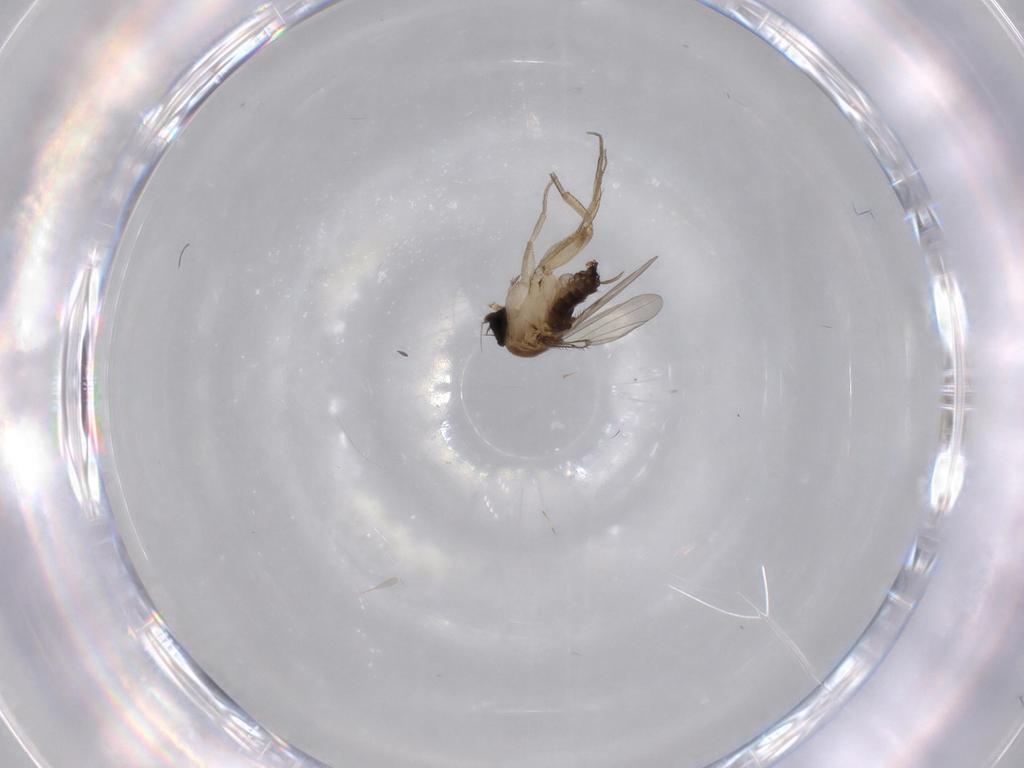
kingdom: Animalia
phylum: Arthropoda
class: Insecta
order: Diptera
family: Phoridae
